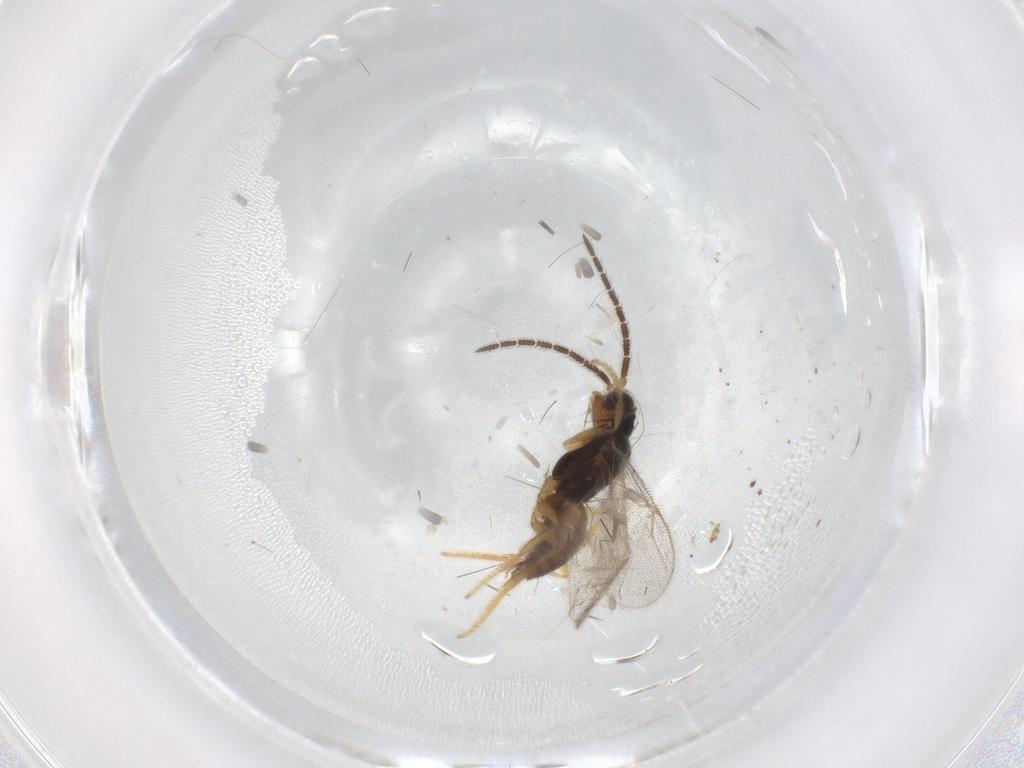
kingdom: Animalia
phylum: Arthropoda
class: Insecta
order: Hymenoptera
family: Dryinidae
